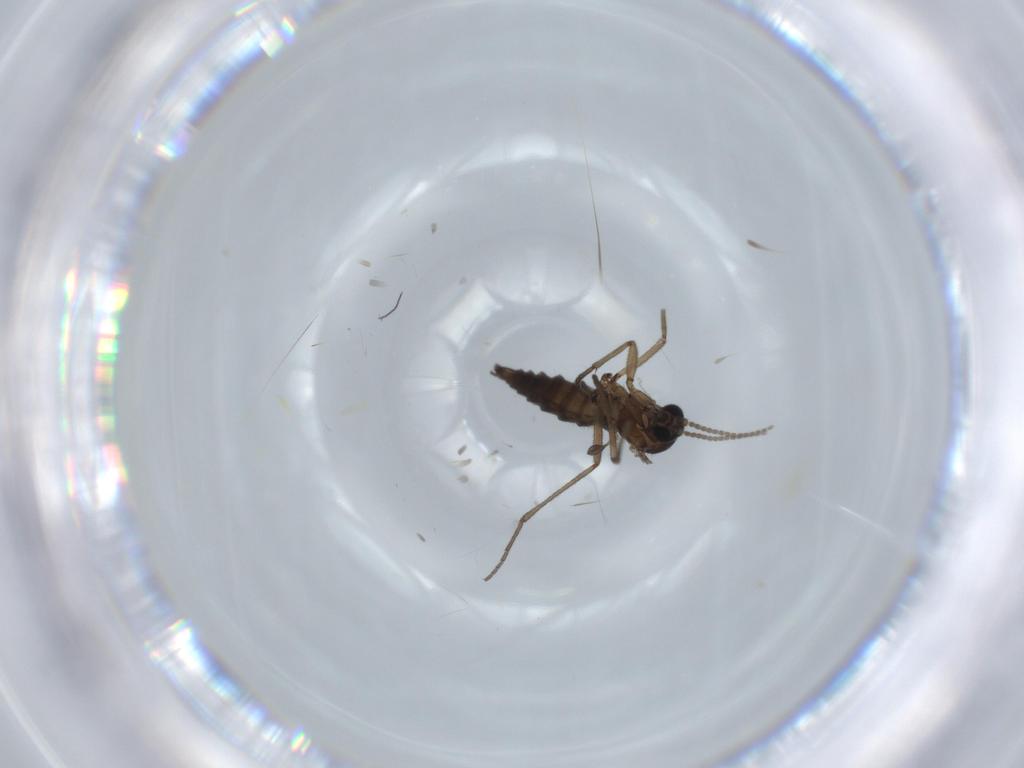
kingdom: Animalia
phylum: Arthropoda
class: Insecta
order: Diptera
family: Sciaridae
